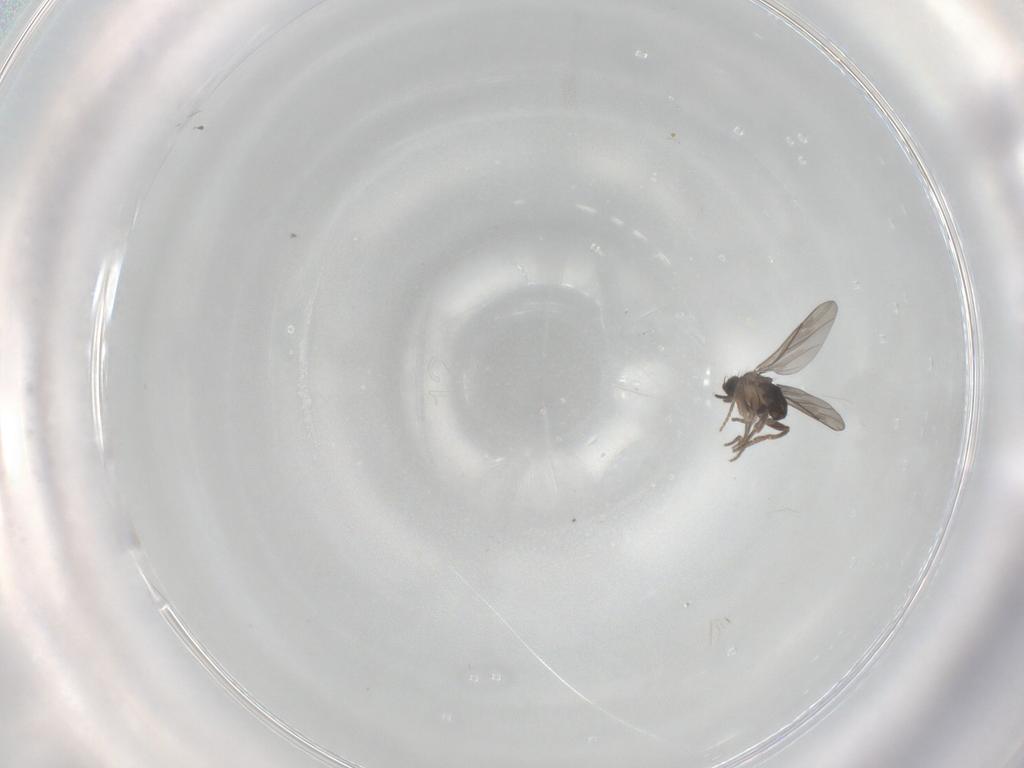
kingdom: Animalia
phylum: Arthropoda
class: Insecta
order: Diptera
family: Cecidomyiidae
